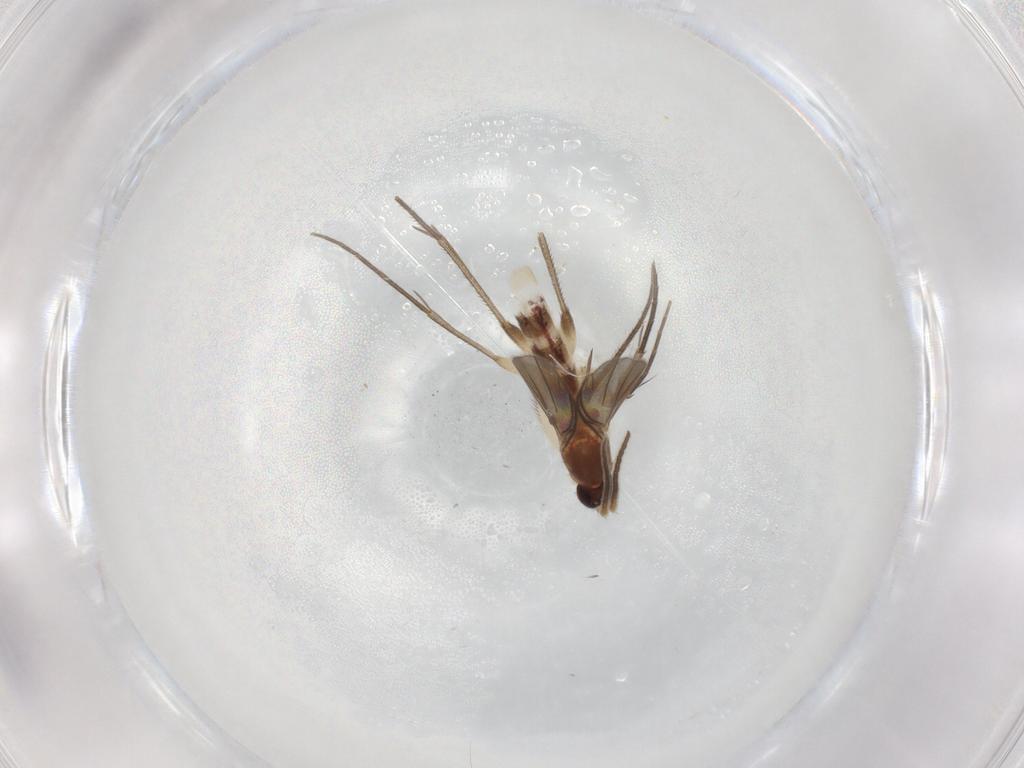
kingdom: Animalia
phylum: Arthropoda
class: Insecta
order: Diptera
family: Mycetophilidae
